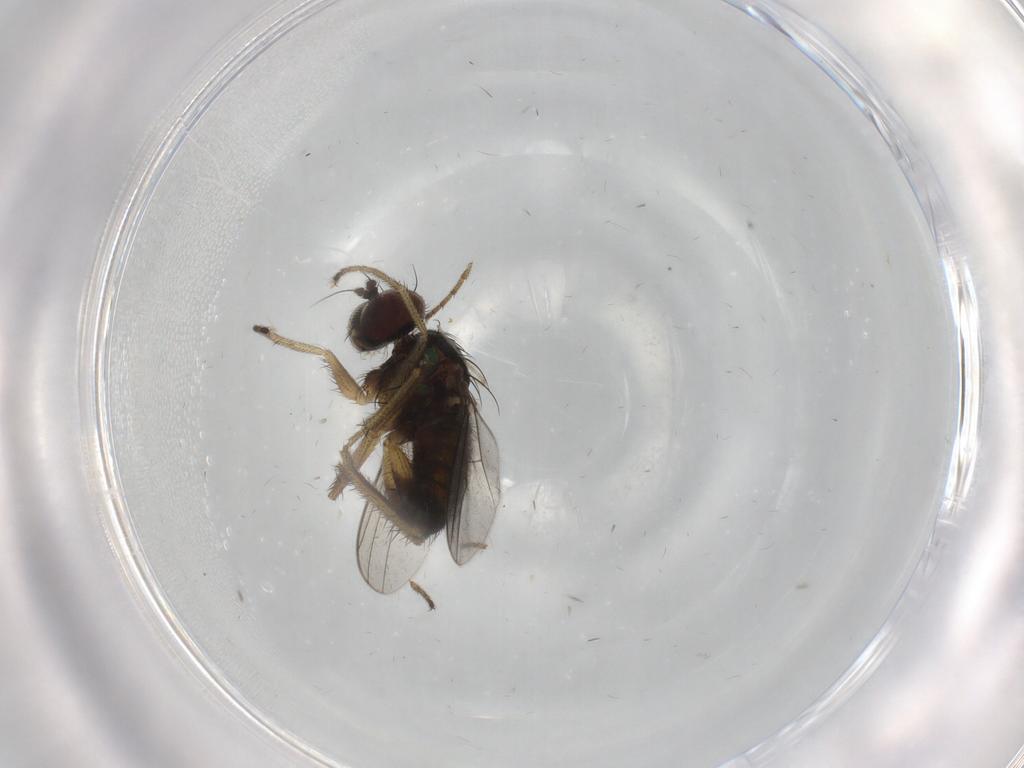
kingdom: Animalia
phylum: Arthropoda
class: Insecta
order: Diptera
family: Dolichopodidae
